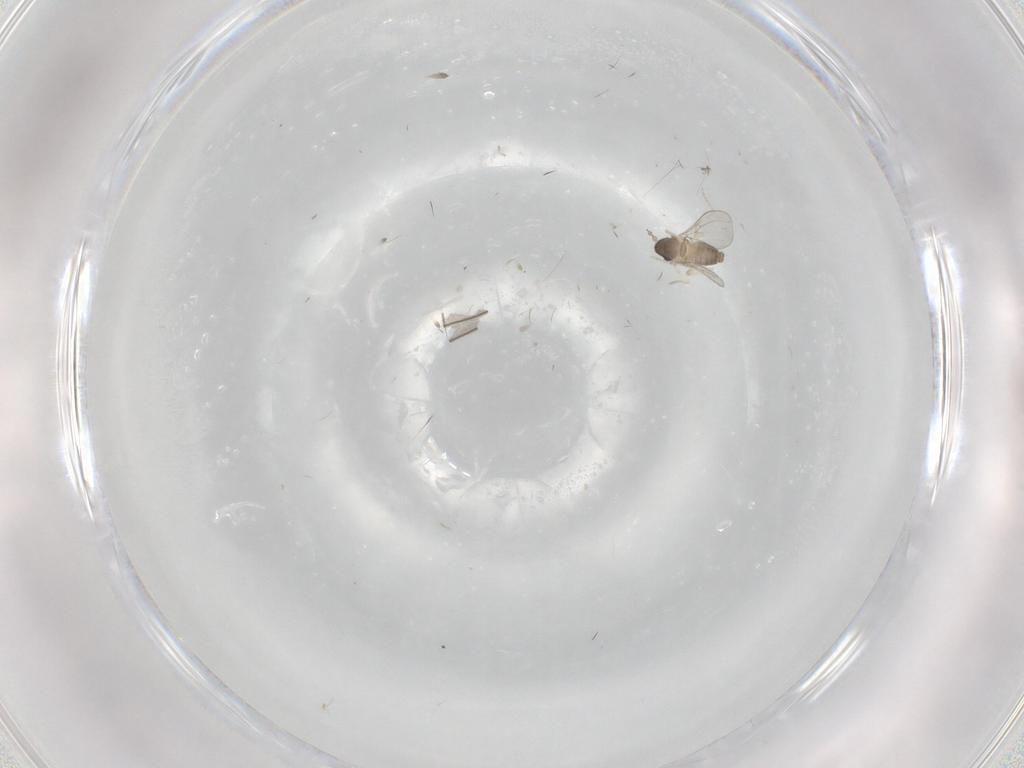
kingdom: Animalia
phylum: Arthropoda
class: Insecta
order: Diptera
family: Cecidomyiidae
